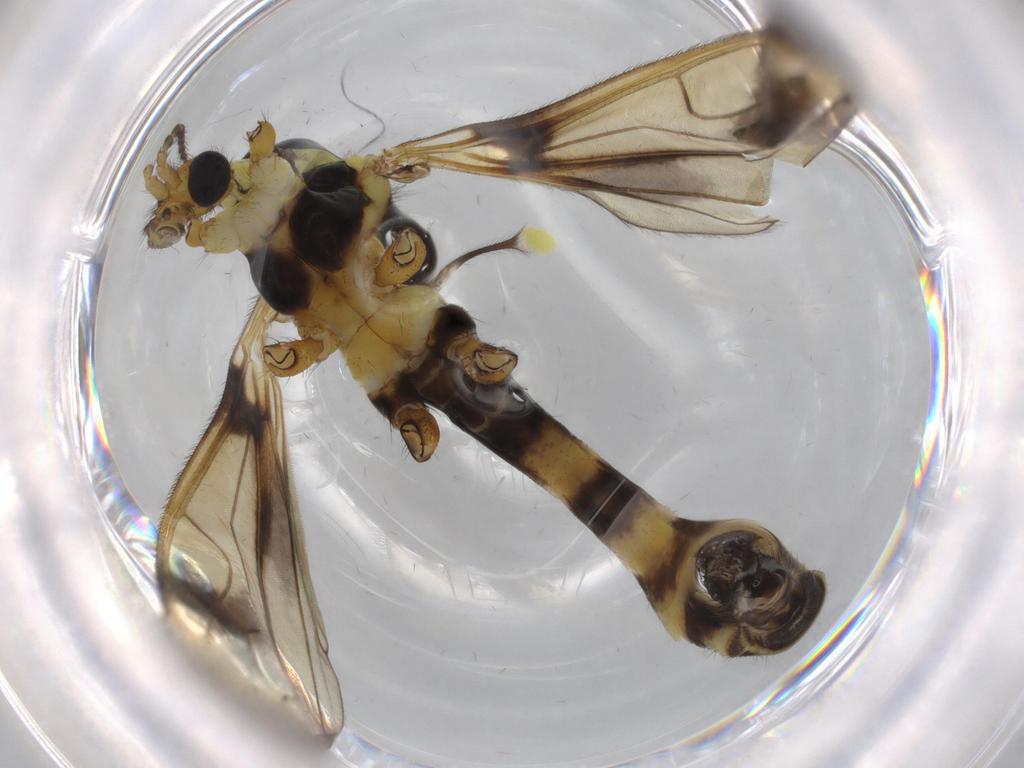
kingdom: Animalia
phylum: Arthropoda
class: Insecta
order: Diptera
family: Limoniidae
